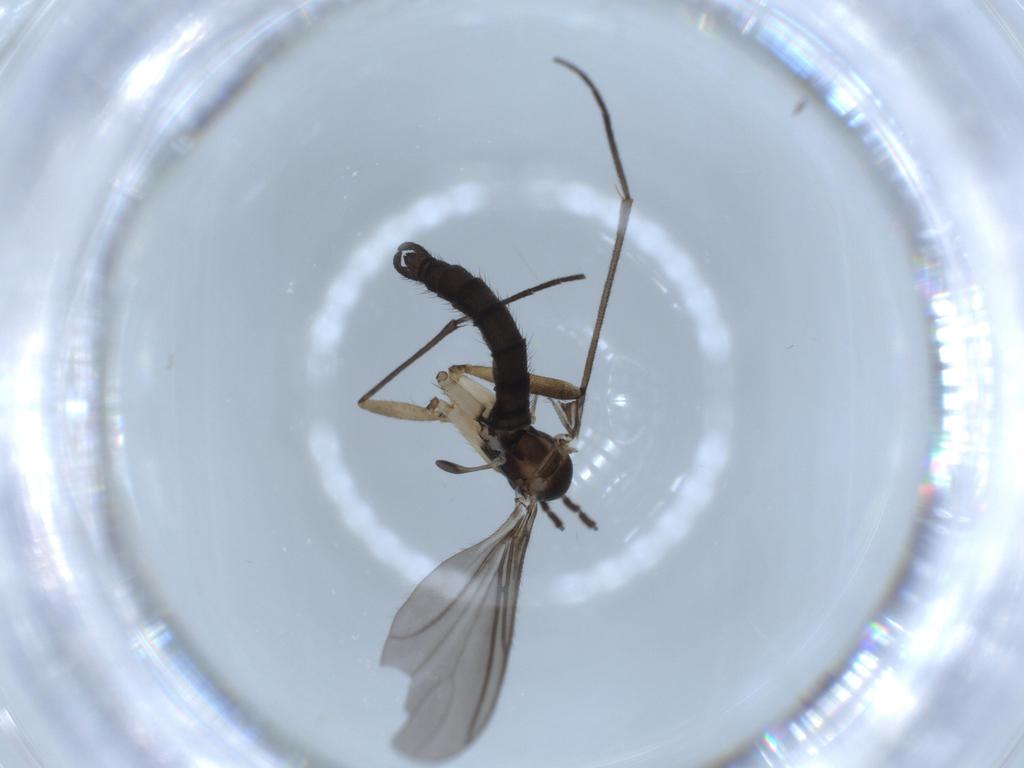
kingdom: Animalia
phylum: Arthropoda
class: Insecta
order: Diptera
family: Sciaridae
